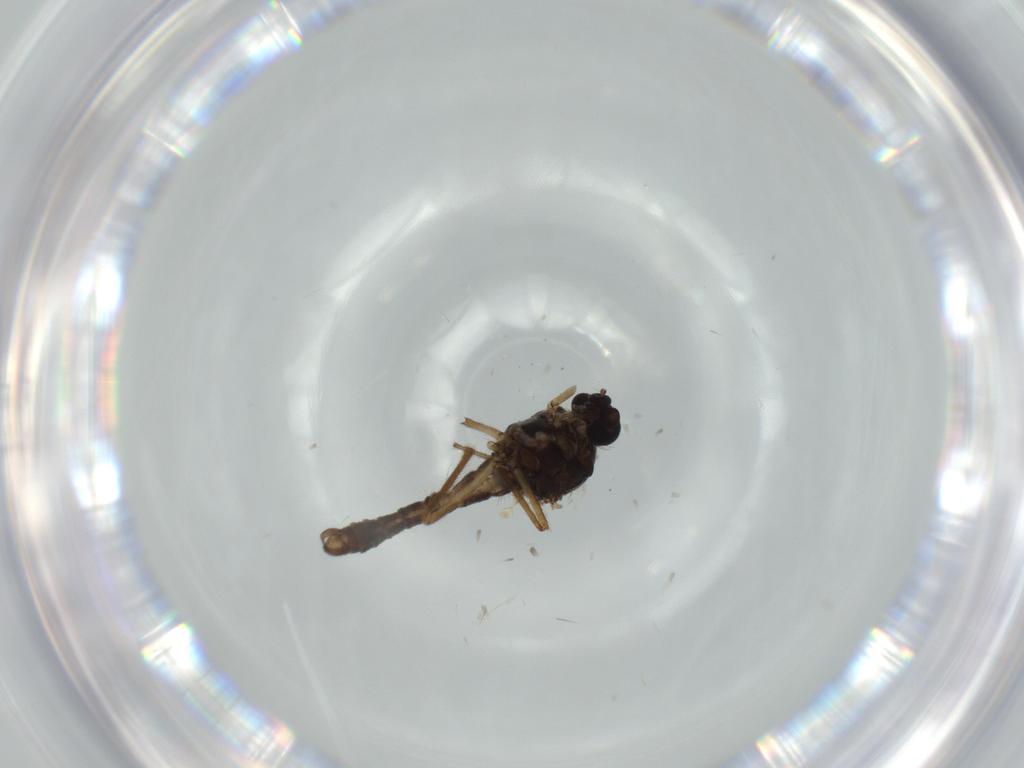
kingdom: Animalia
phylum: Arthropoda
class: Insecta
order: Diptera
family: Ceratopogonidae
